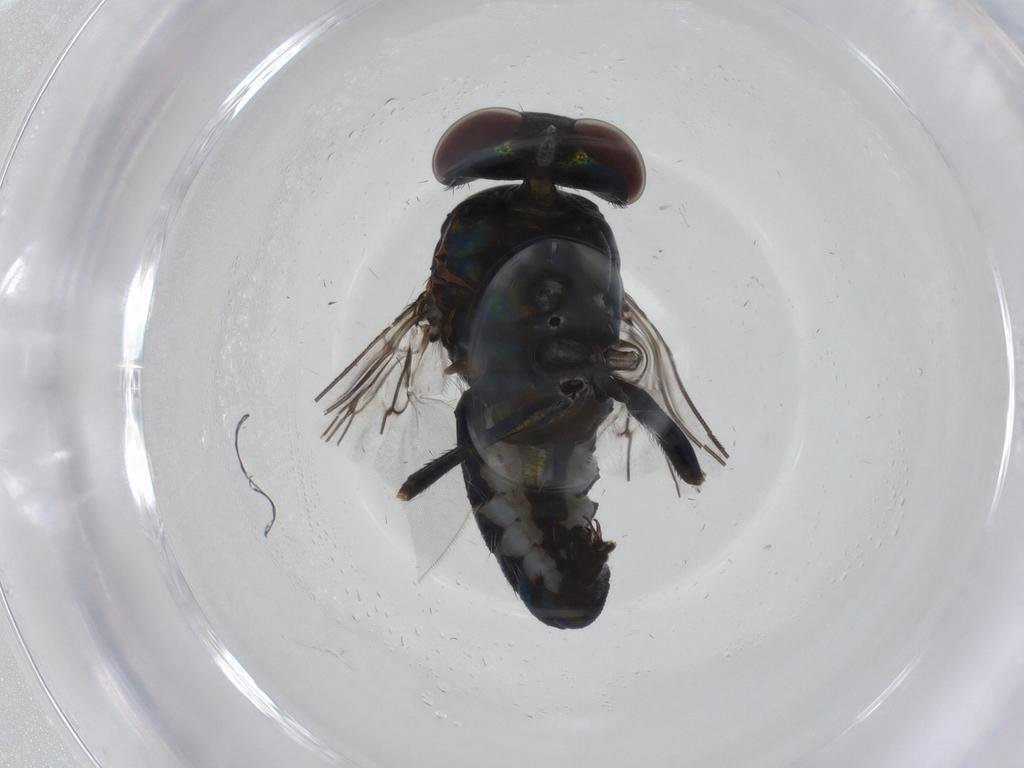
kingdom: Animalia
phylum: Arthropoda
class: Insecta
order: Diptera
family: Dolichopodidae
